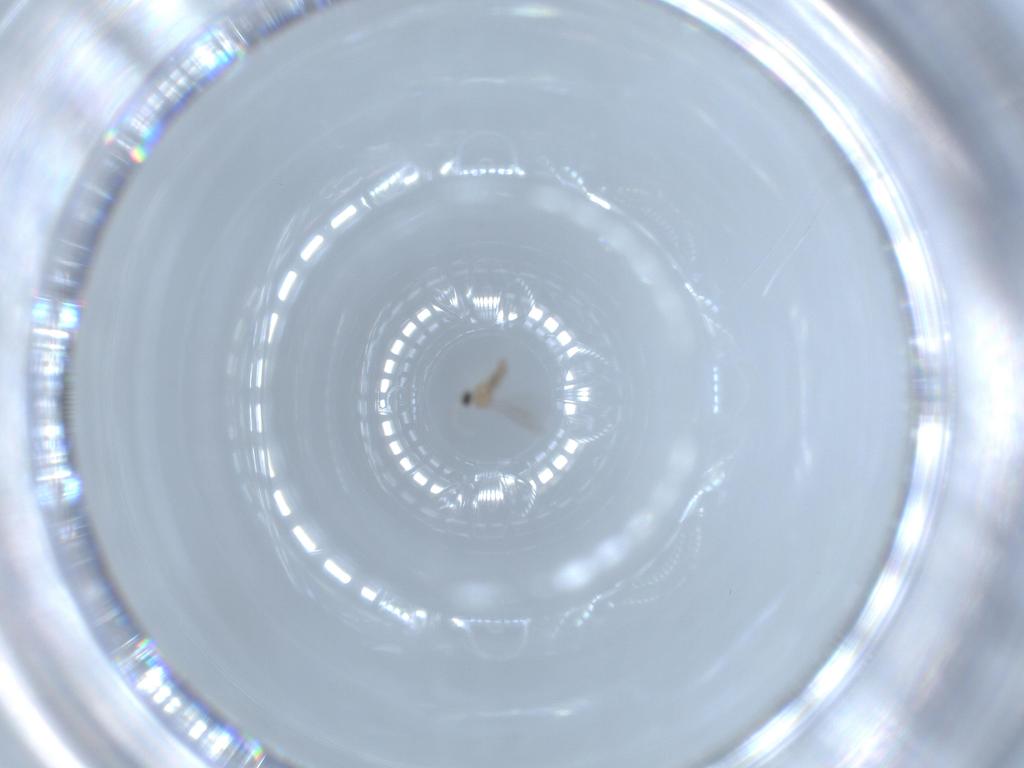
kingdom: Animalia
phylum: Arthropoda
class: Insecta
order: Diptera
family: Cecidomyiidae
